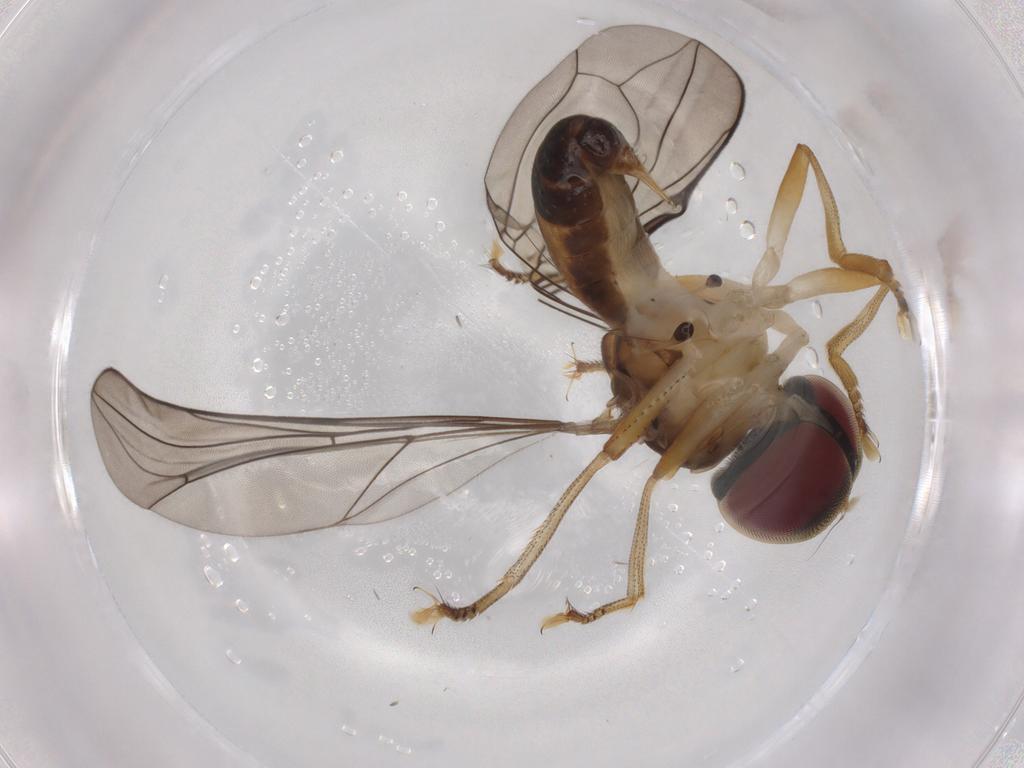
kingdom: Animalia
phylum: Arthropoda
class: Insecta
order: Diptera
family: Pipunculidae
